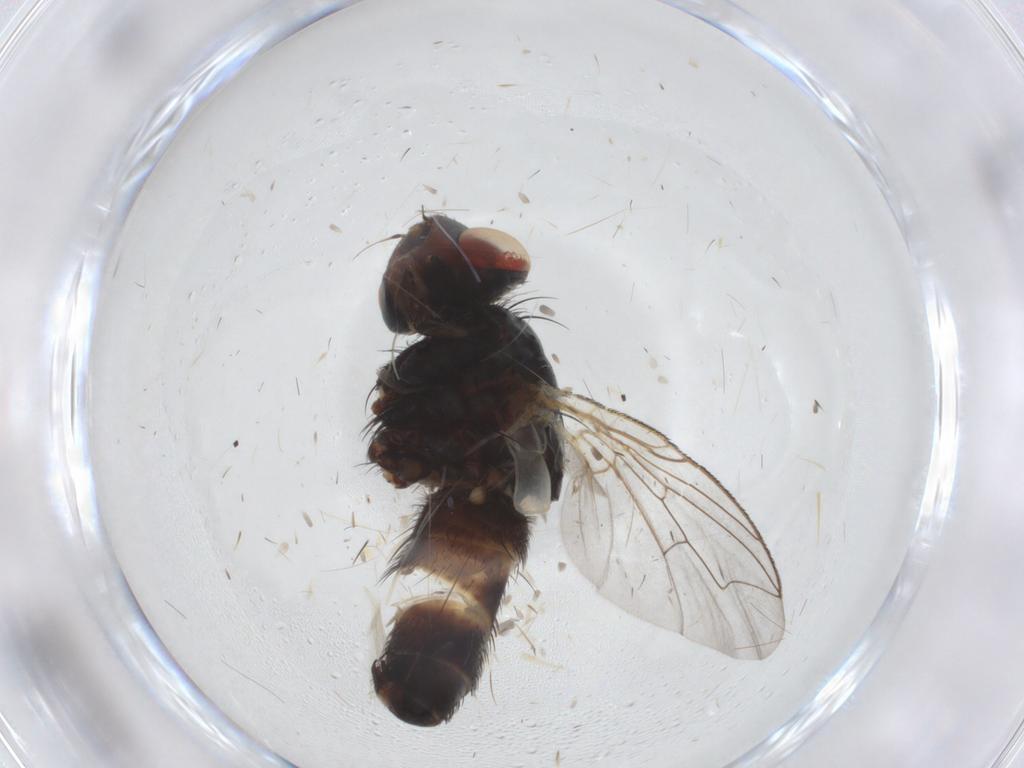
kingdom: Animalia
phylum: Arthropoda
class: Insecta
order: Diptera
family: Sarcophagidae
